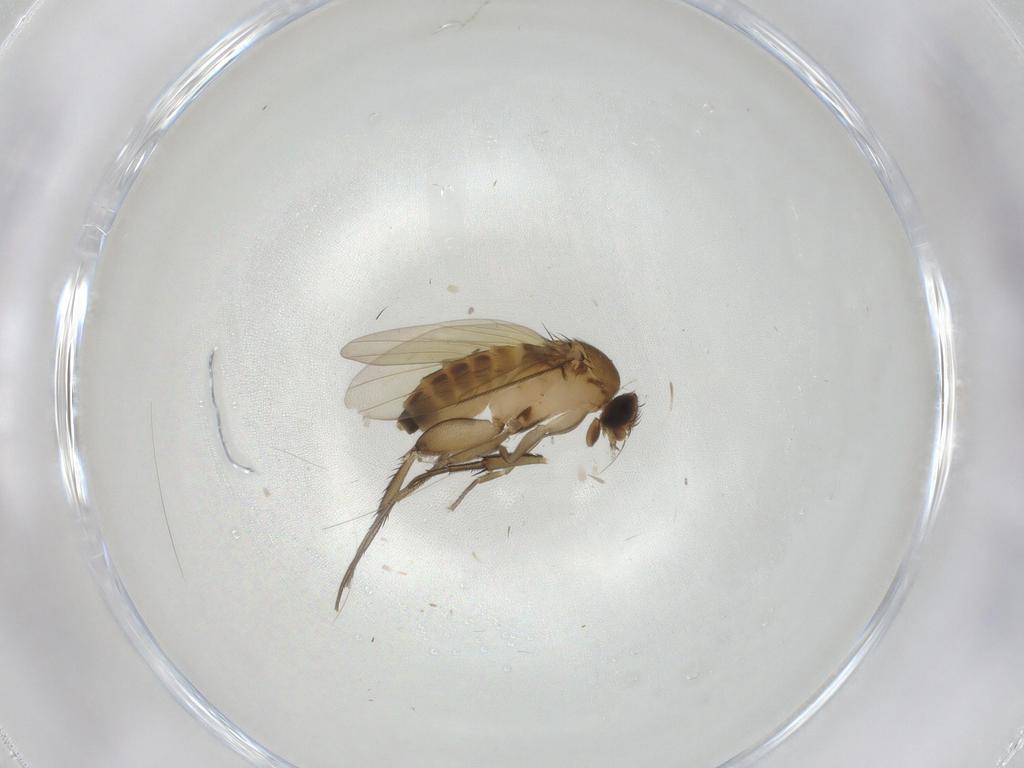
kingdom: Animalia
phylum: Arthropoda
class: Insecta
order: Diptera
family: Phoridae
